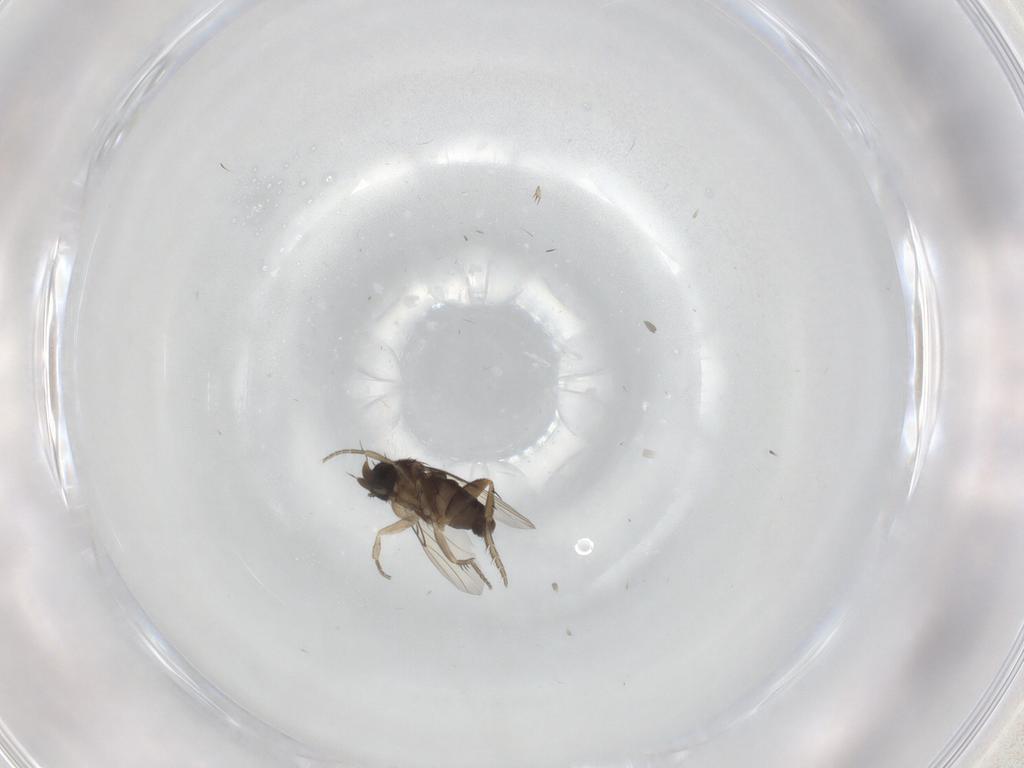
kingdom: Animalia
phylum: Arthropoda
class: Insecta
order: Diptera
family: Phoridae
